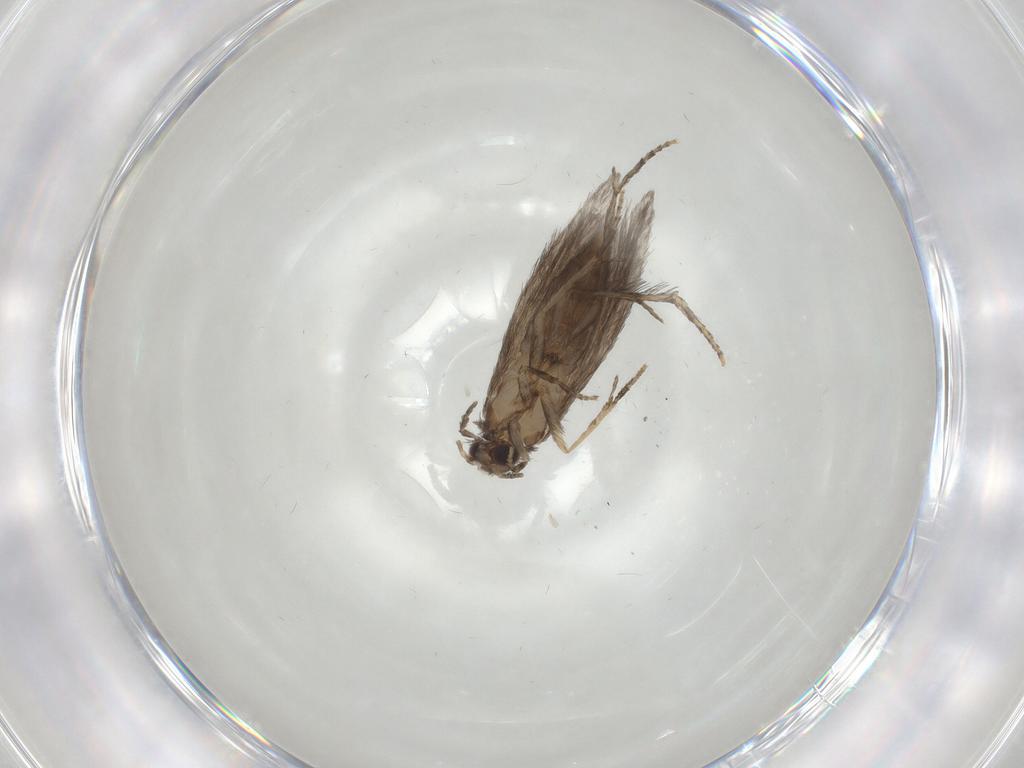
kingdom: Animalia
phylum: Arthropoda
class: Insecta
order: Trichoptera
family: Hydroptilidae
